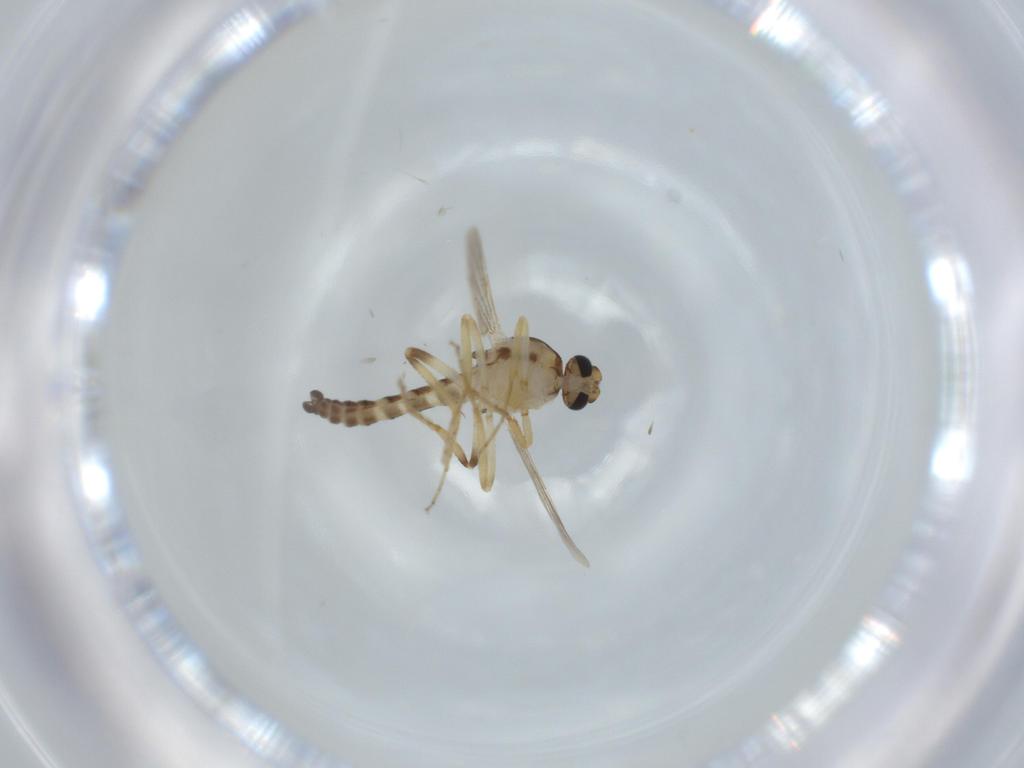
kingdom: Animalia
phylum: Arthropoda
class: Insecta
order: Diptera
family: Ceratopogonidae
